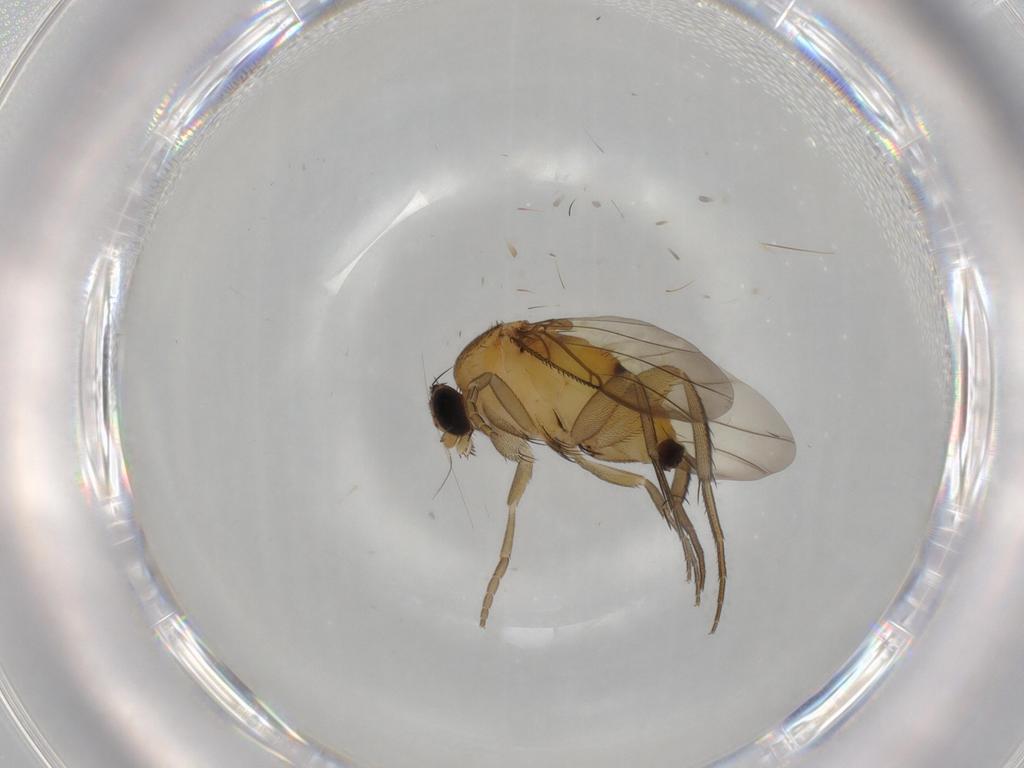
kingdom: Animalia
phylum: Arthropoda
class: Insecta
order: Diptera
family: Phoridae
